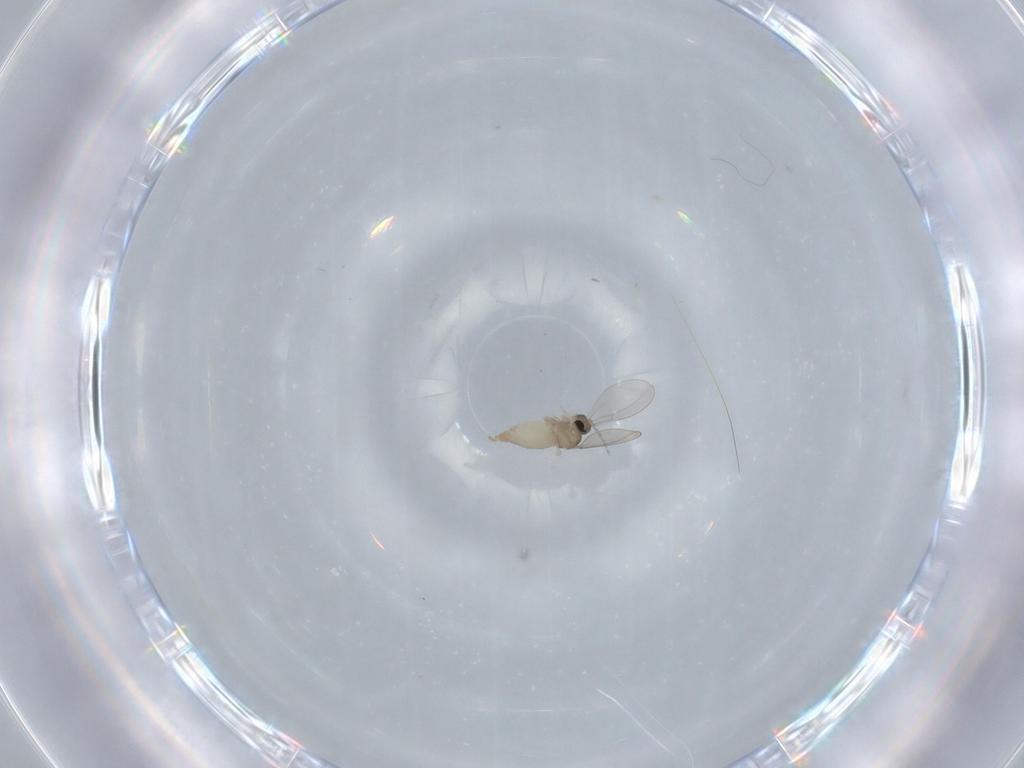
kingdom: Animalia
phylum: Arthropoda
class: Insecta
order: Diptera
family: Cecidomyiidae
